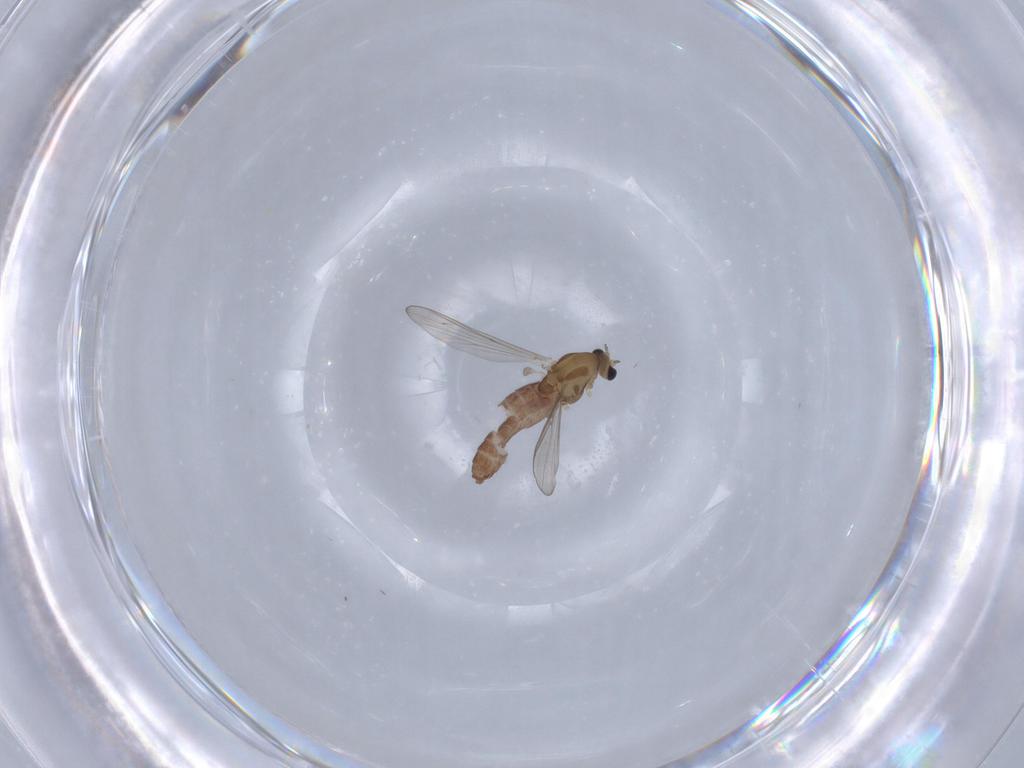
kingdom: Animalia
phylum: Arthropoda
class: Insecta
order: Diptera
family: Chironomidae
